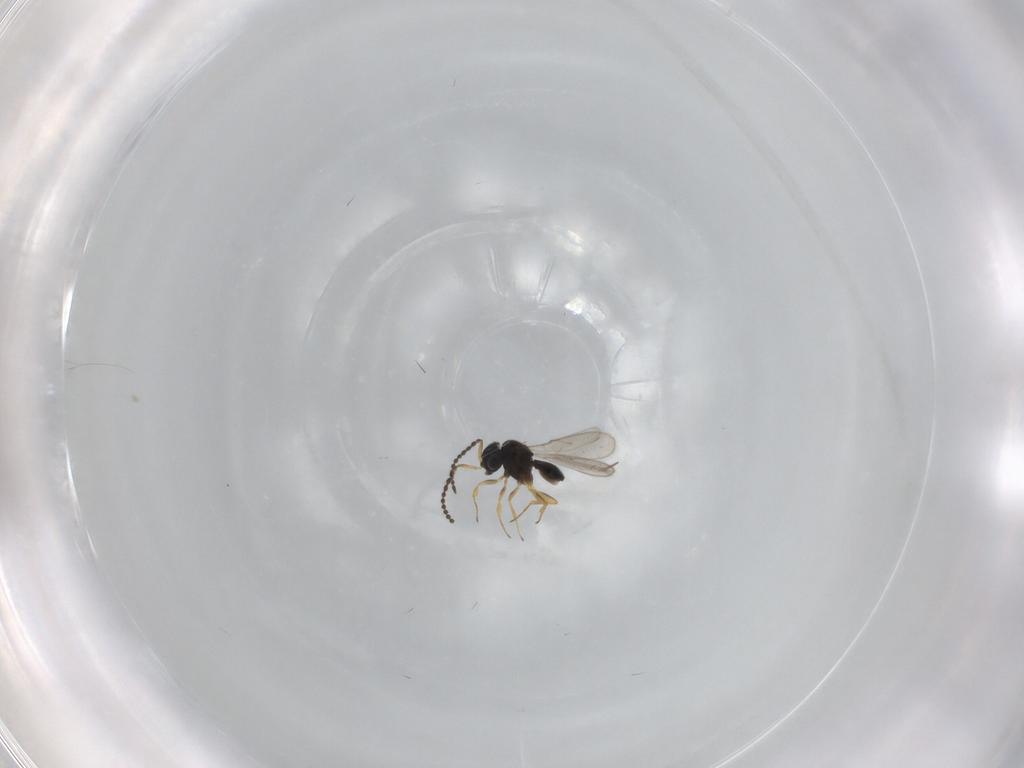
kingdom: Animalia
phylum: Arthropoda
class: Insecta
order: Hymenoptera
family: Scelionidae
